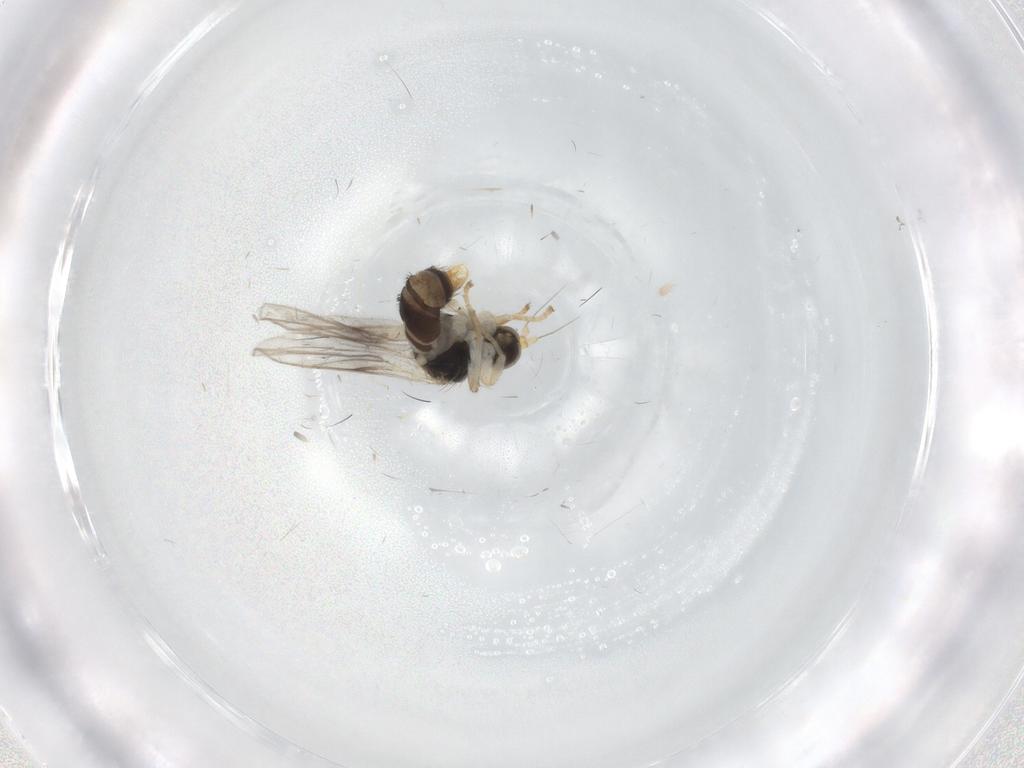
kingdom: Animalia
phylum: Arthropoda
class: Insecta
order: Diptera
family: Hybotidae
